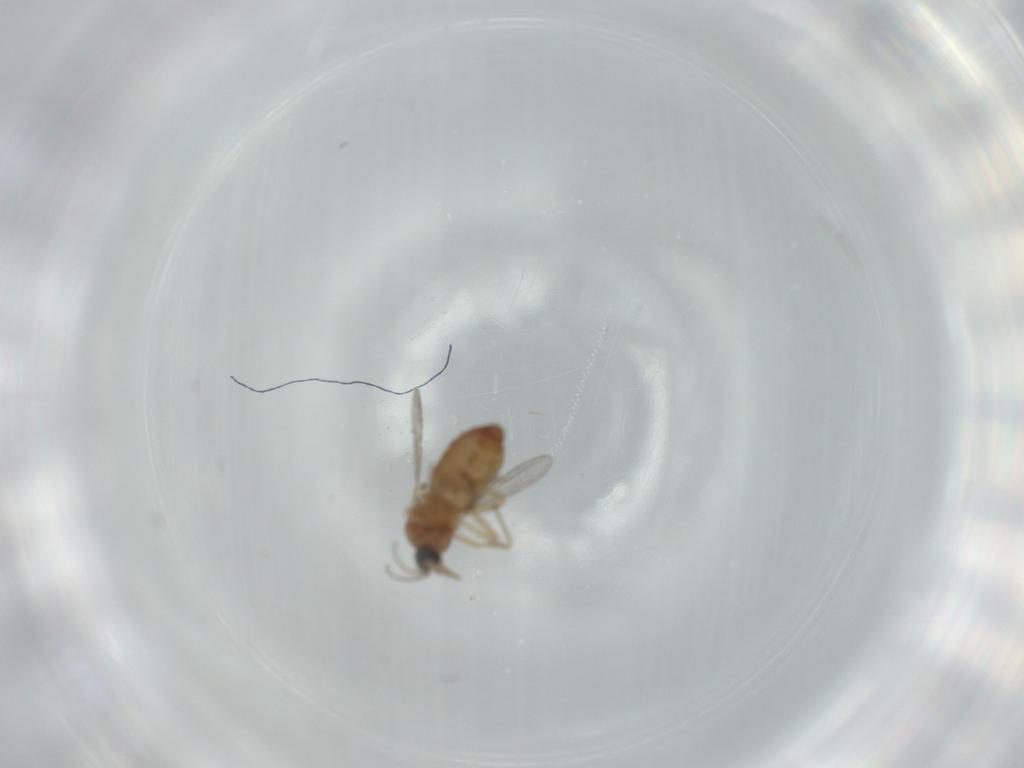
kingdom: Animalia
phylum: Arthropoda
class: Insecta
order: Diptera
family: Ceratopogonidae
